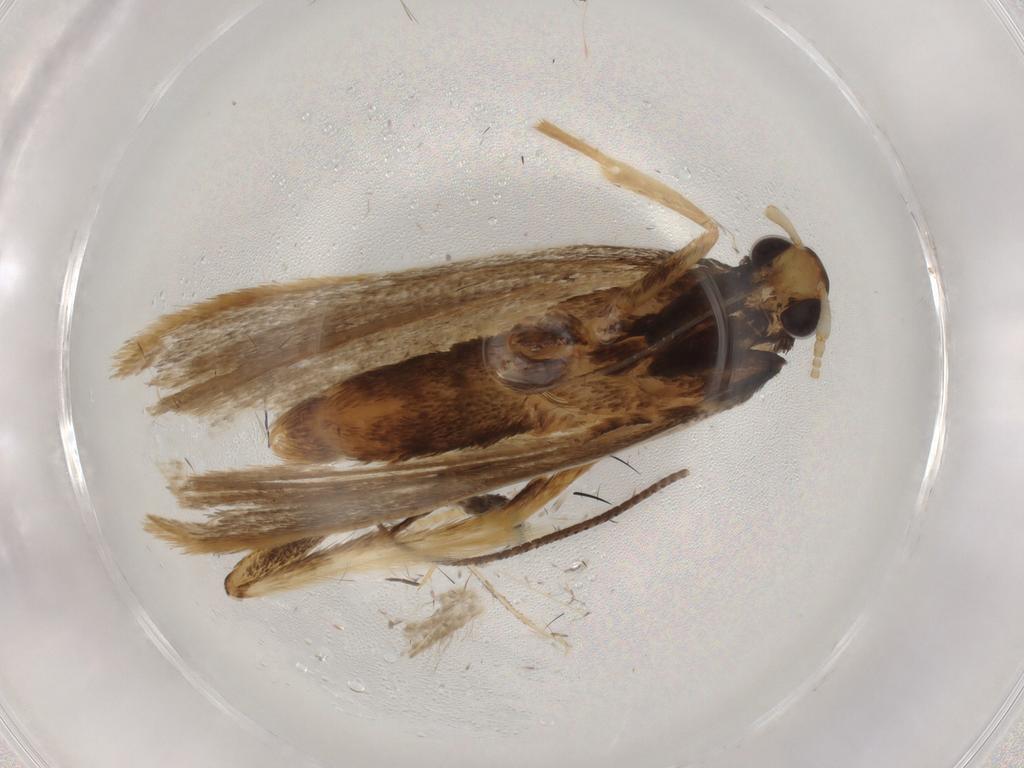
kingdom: Animalia
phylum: Arthropoda
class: Insecta
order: Lepidoptera
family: Lecithoceridae
